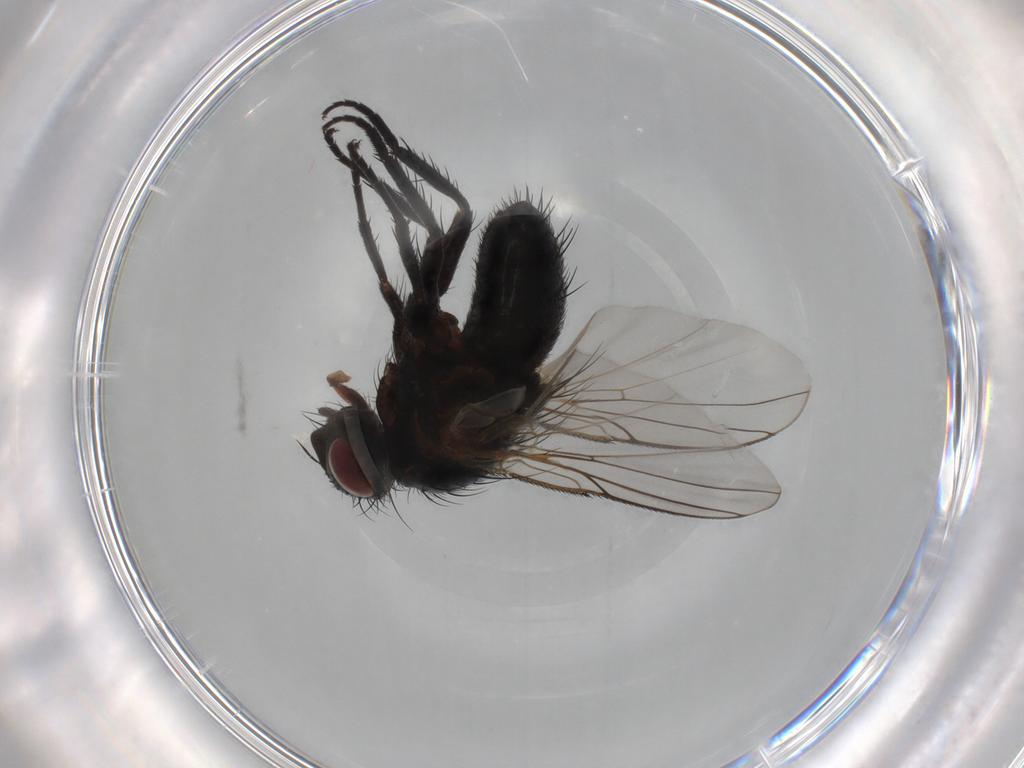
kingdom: Animalia
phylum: Arthropoda
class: Insecta
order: Diptera
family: Tachinidae
